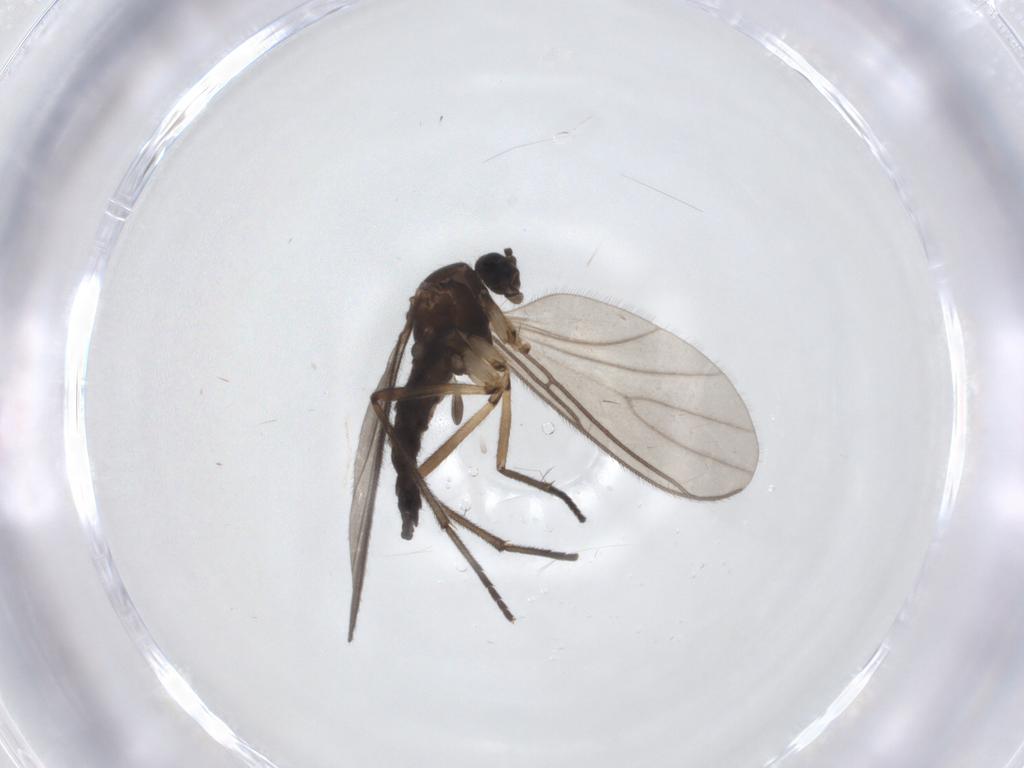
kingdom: Animalia
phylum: Arthropoda
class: Insecta
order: Diptera
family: Sciaridae
